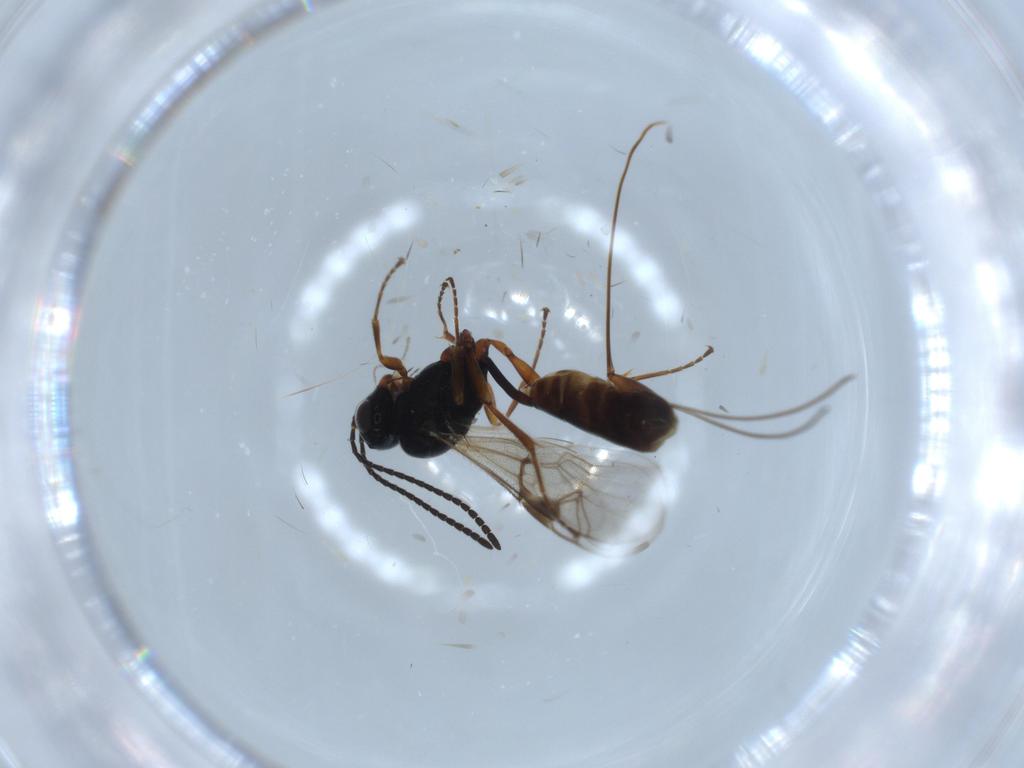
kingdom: Animalia
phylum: Arthropoda
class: Insecta
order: Hymenoptera
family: Ichneumonidae
